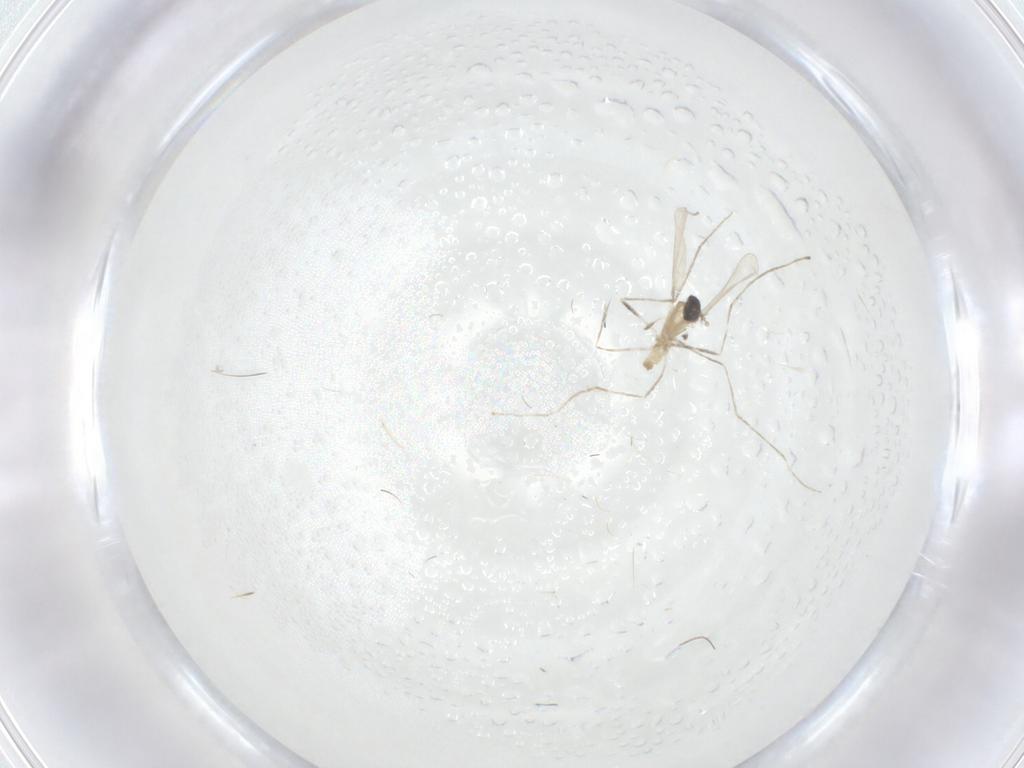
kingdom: Animalia
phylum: Arthropoda
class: Insecta
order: Diptera
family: Cecidomyiidae
